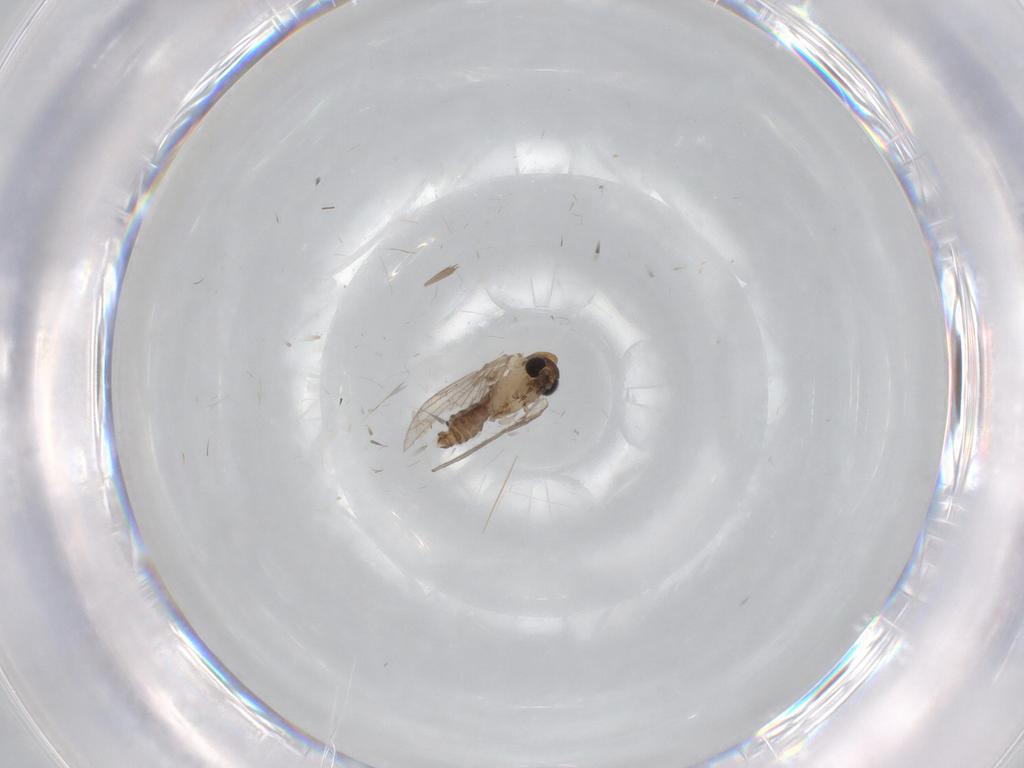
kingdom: Animalia
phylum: Arthropoda
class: Insecta
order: Diptera
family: Psychodidae
